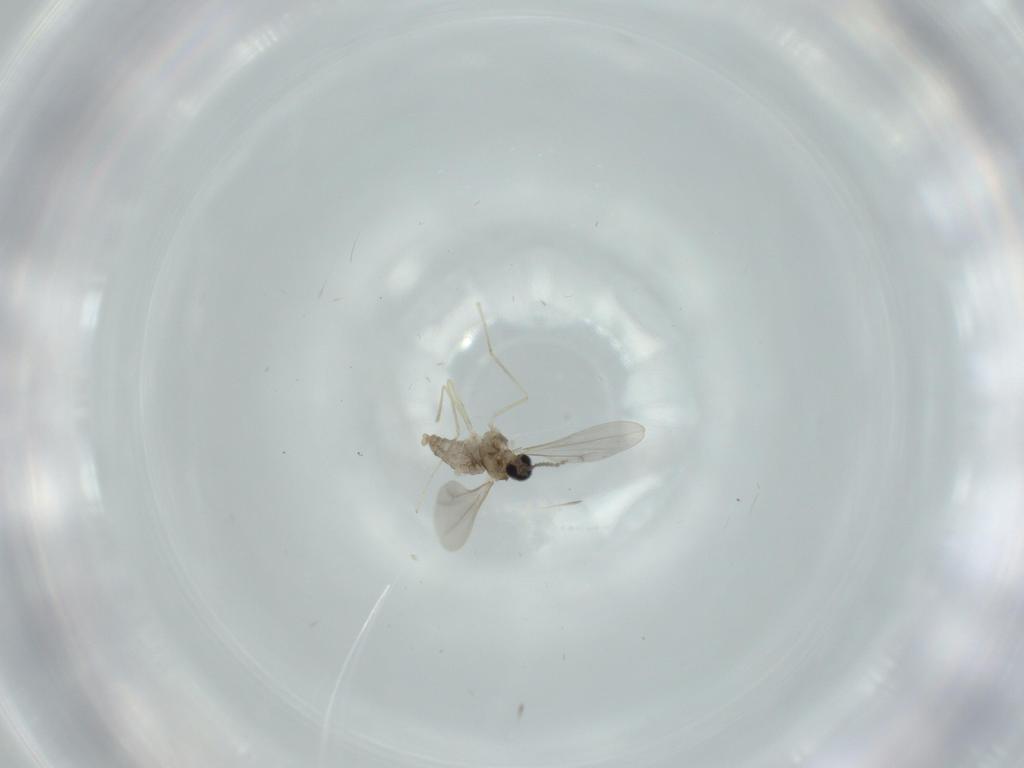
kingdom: Animalia
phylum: Arthropoda
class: Insecta
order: Diptera
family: Cecidomyiidae
